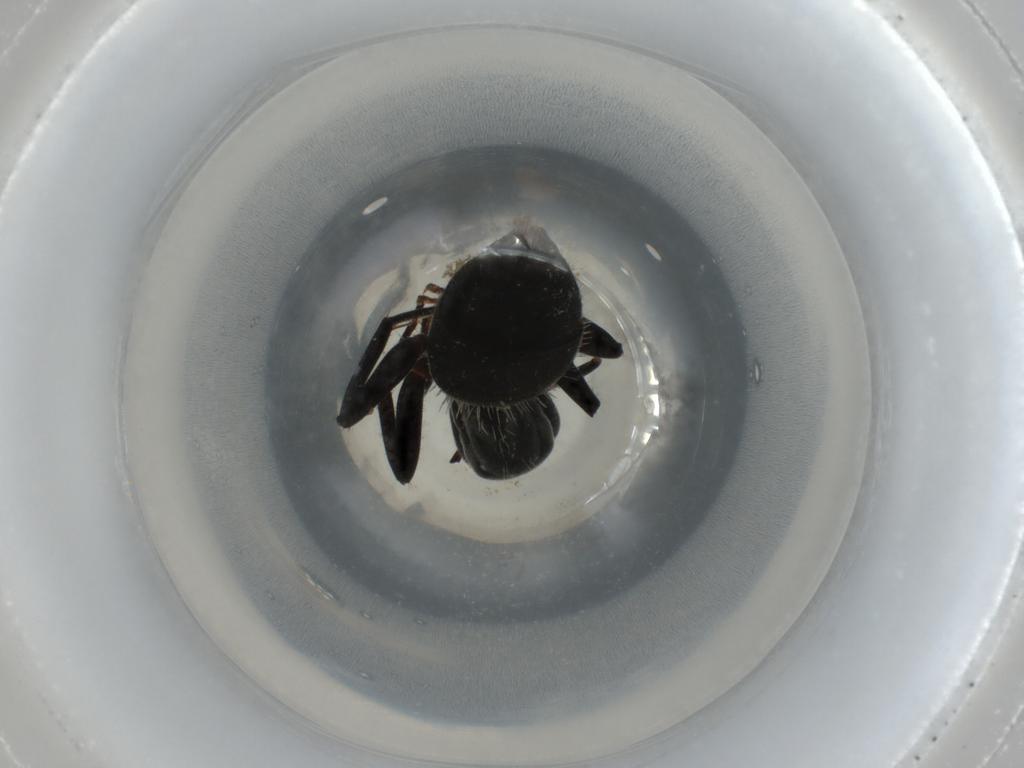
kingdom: Animalia
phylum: Arthropoda
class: Insecta
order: Hymenoptera
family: Formicidae
